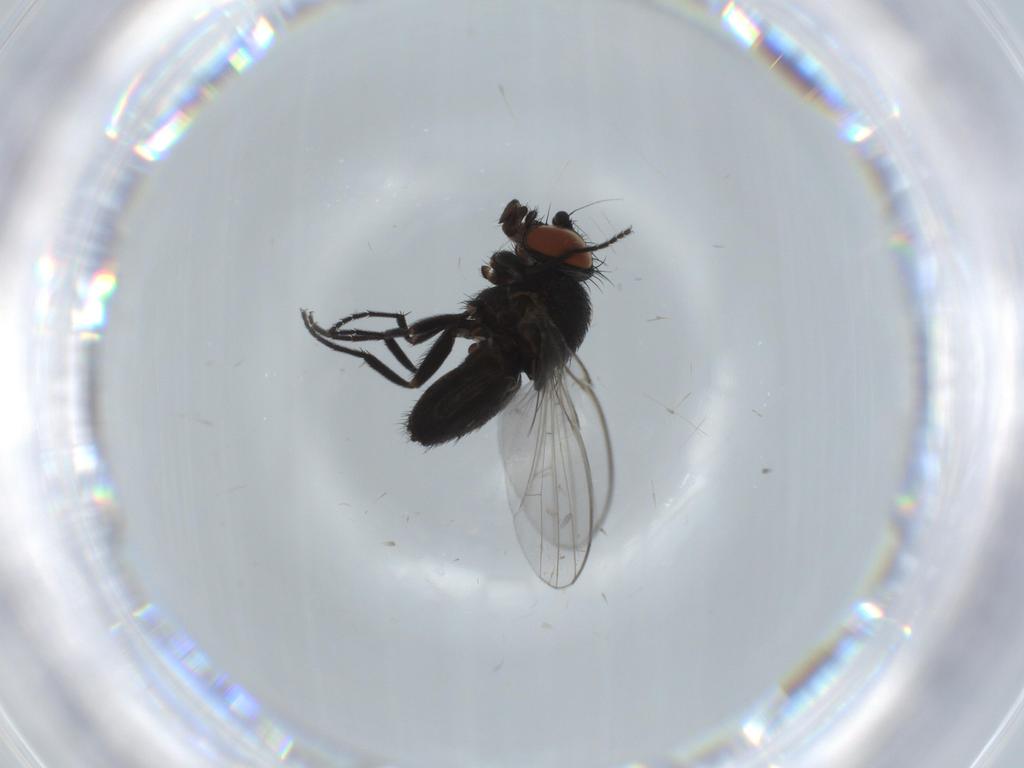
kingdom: Animalia
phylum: Arthropoda
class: Insecta
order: Diptera
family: Milichiidae
